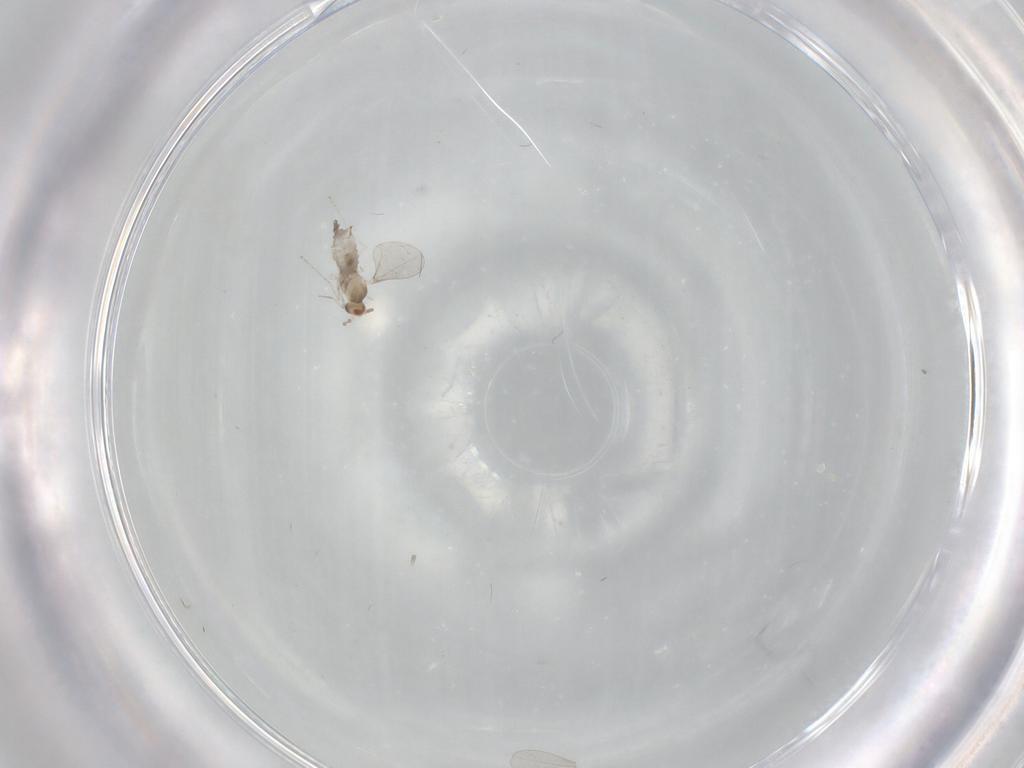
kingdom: Animalia
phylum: Arthropoda
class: Insecta
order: Diptera
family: Cecidomyiidae
